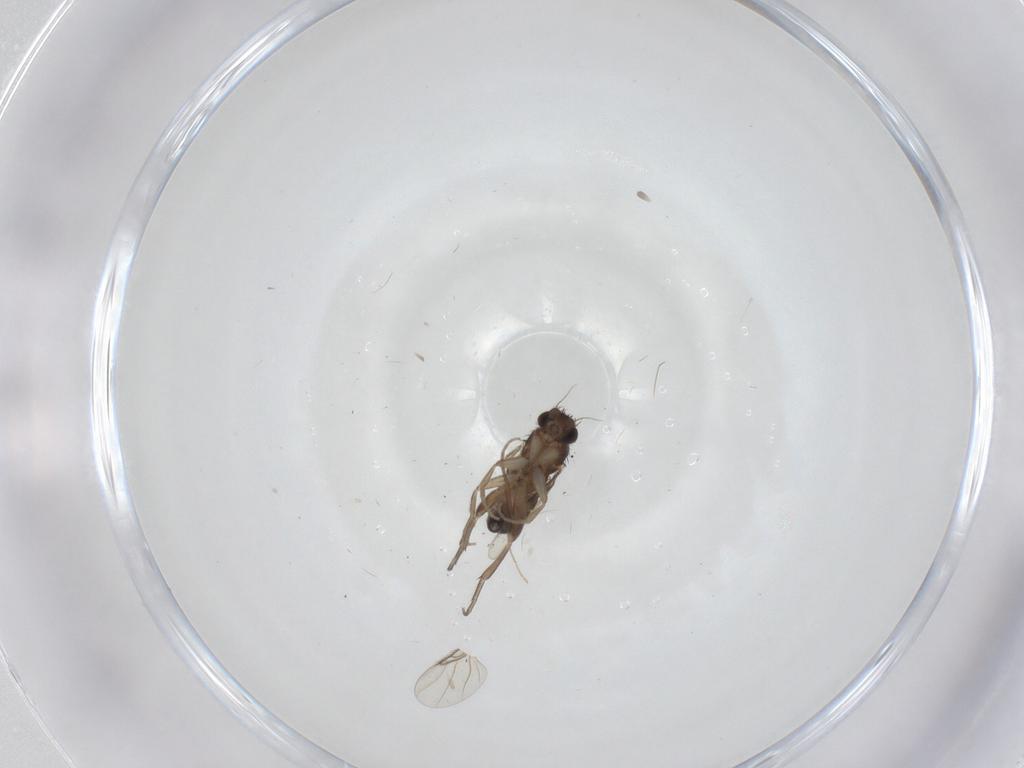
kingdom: Animalia
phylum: Arthropoda
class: Insecta
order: Diptera
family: Phoridae
